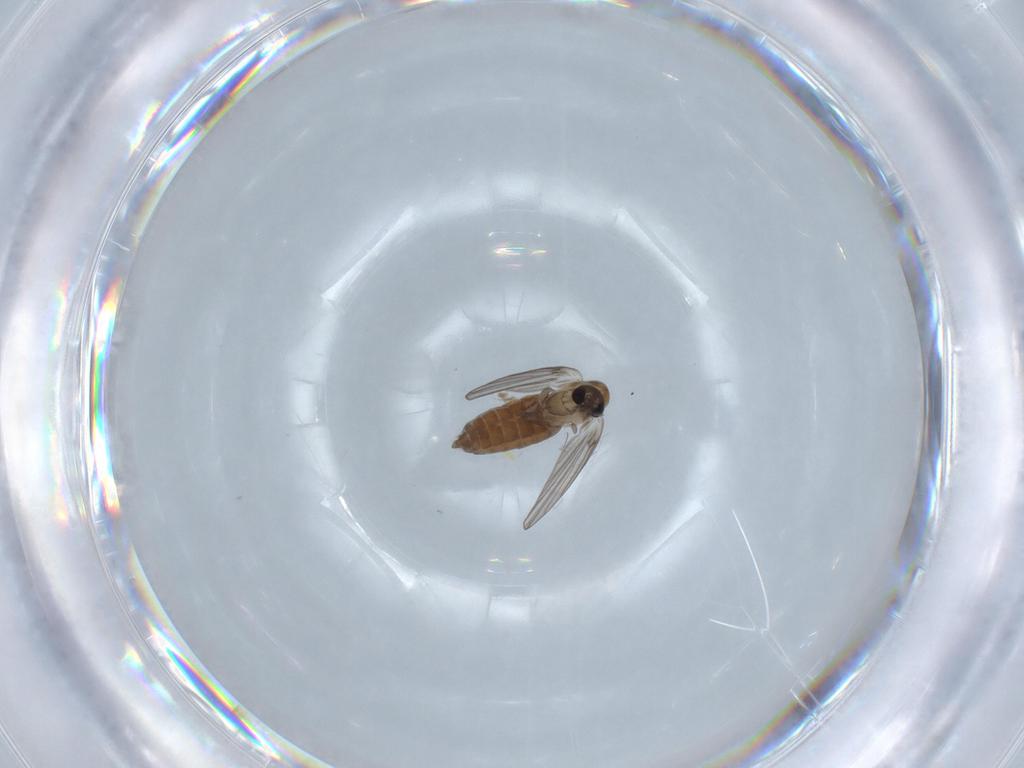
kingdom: Animalia
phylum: Arthropoda
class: Insecta
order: Diptera
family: Psychodidae
